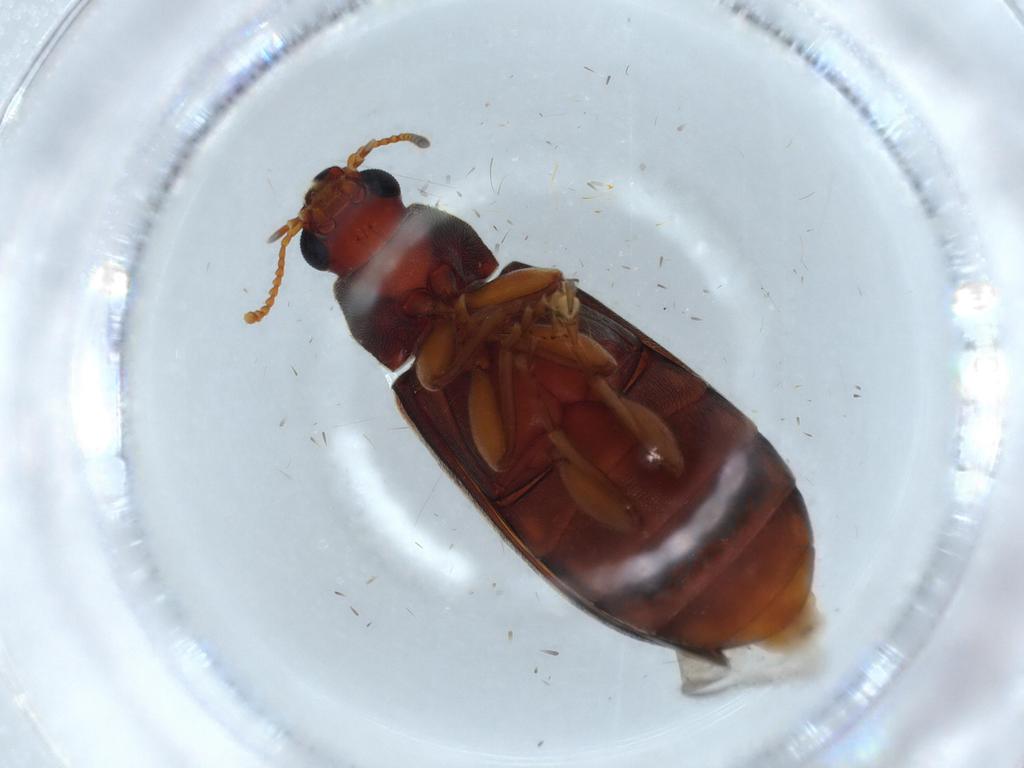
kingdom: Animalia
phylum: Arthropoda
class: Insecta
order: Coleoptera
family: Mycteridae
